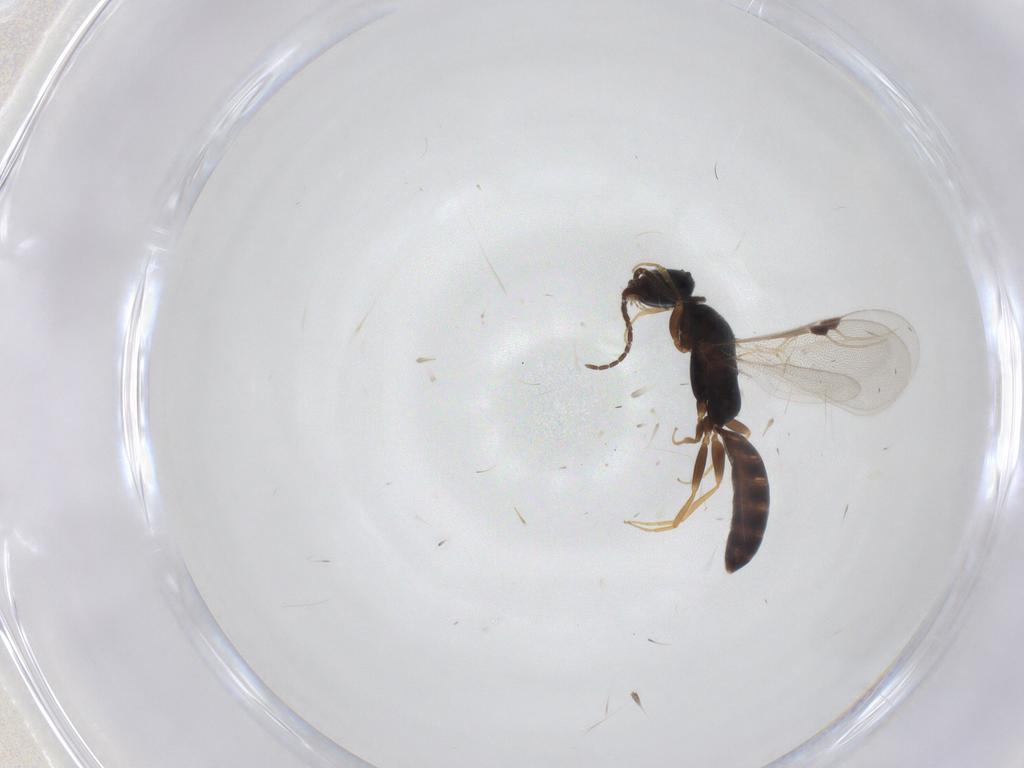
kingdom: Animalia
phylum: Arthropoda
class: Insecta
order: Hymenoptera
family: Bethylidae
